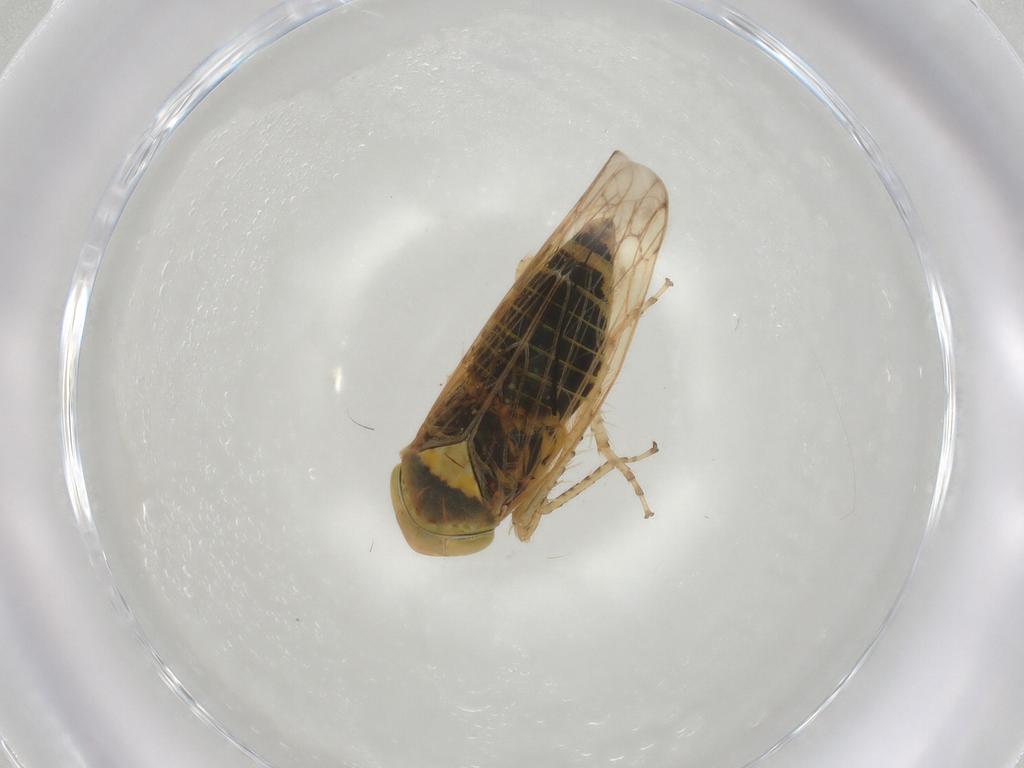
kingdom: Animalia
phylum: Arthropoda
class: Insecta
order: Hemiptera
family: Cicadellidae
